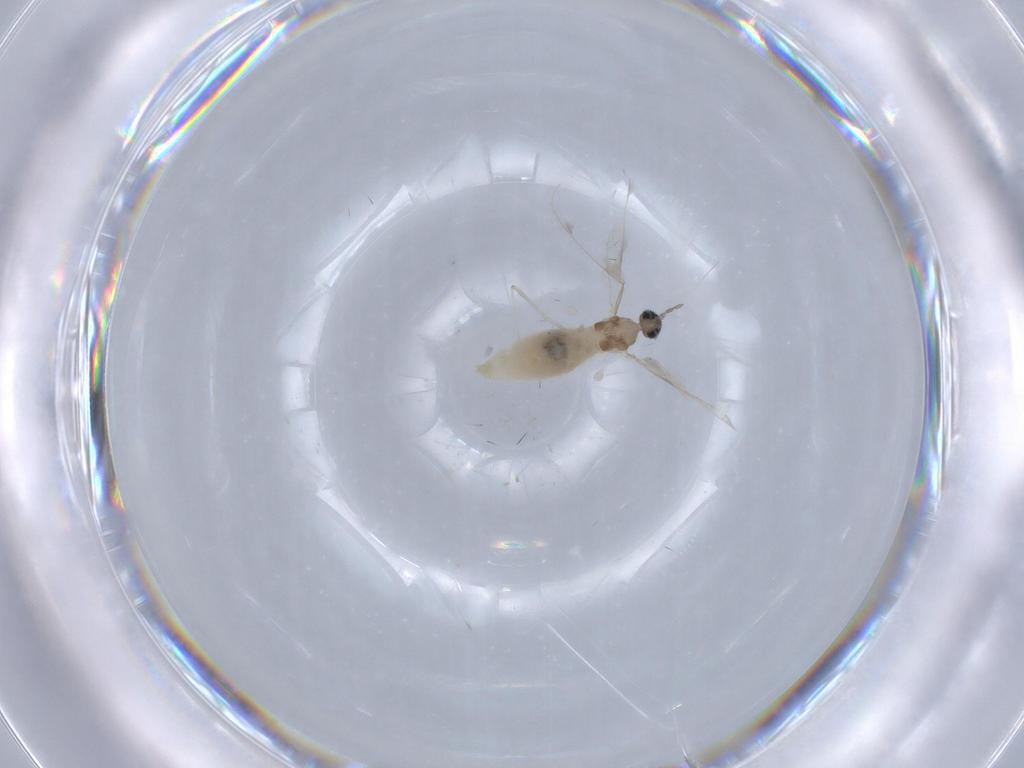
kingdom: Animalia
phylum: Arthropoda
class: Insecta
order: Diptera
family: Cecidomyiidae
